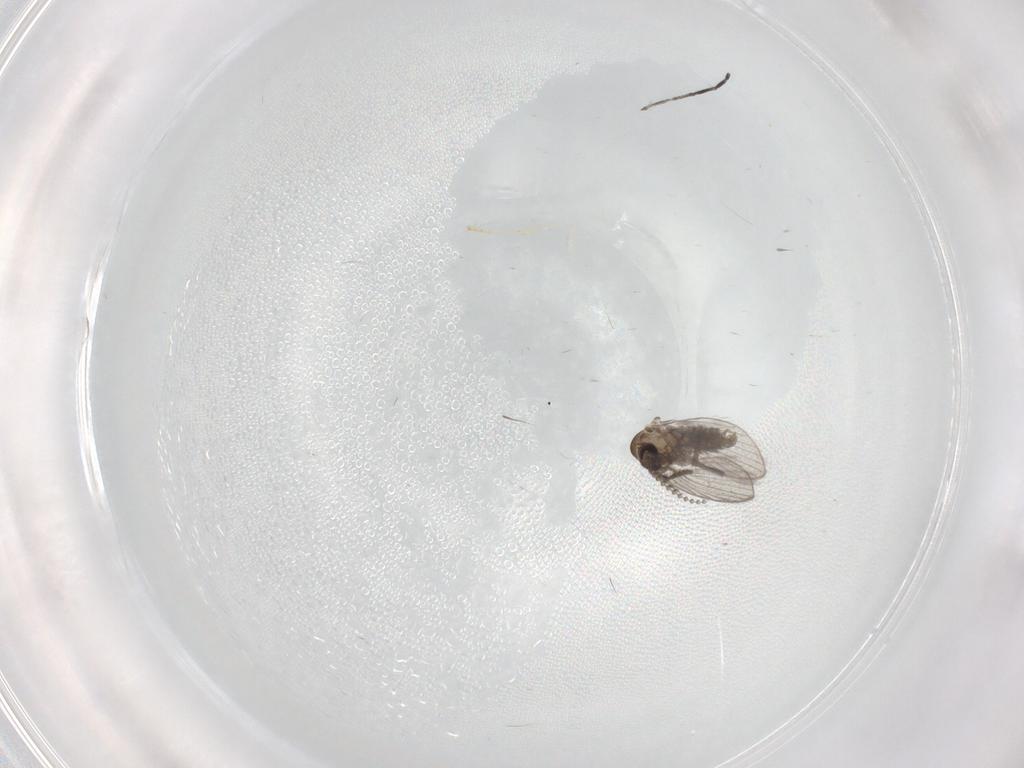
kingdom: Animalia
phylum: Arthropoda
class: Insecta
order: Diptera
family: Psychodidae
